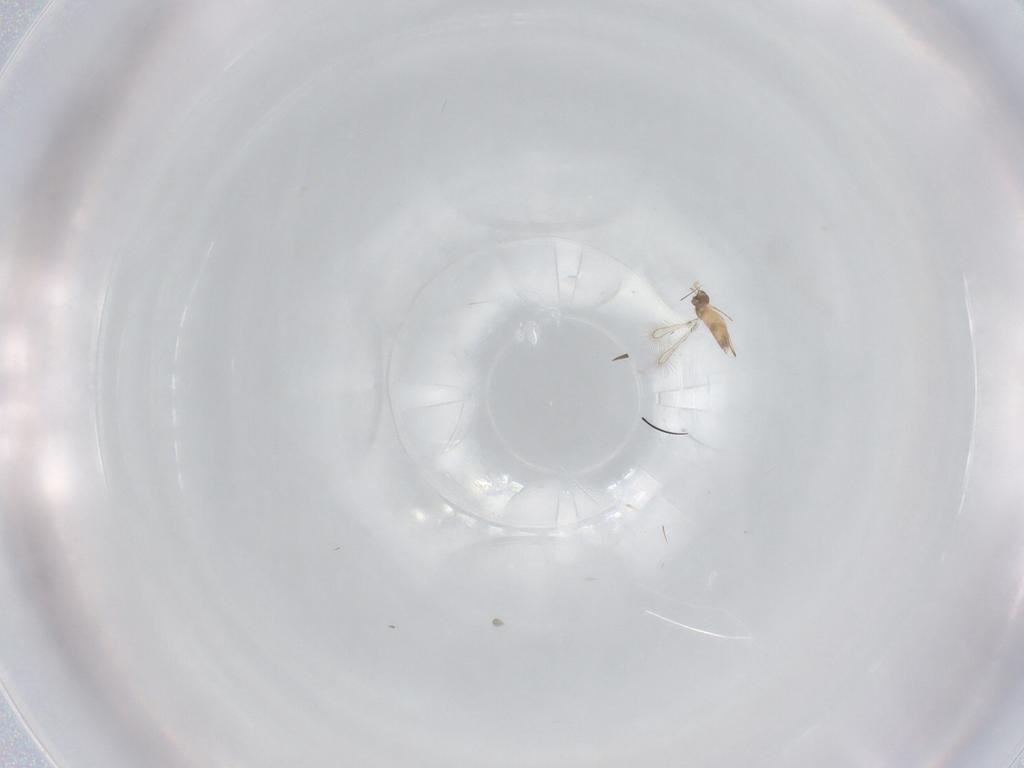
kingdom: Animalia
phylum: Arthropoda
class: Insecta
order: Hymenoptera
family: Mymaridae
